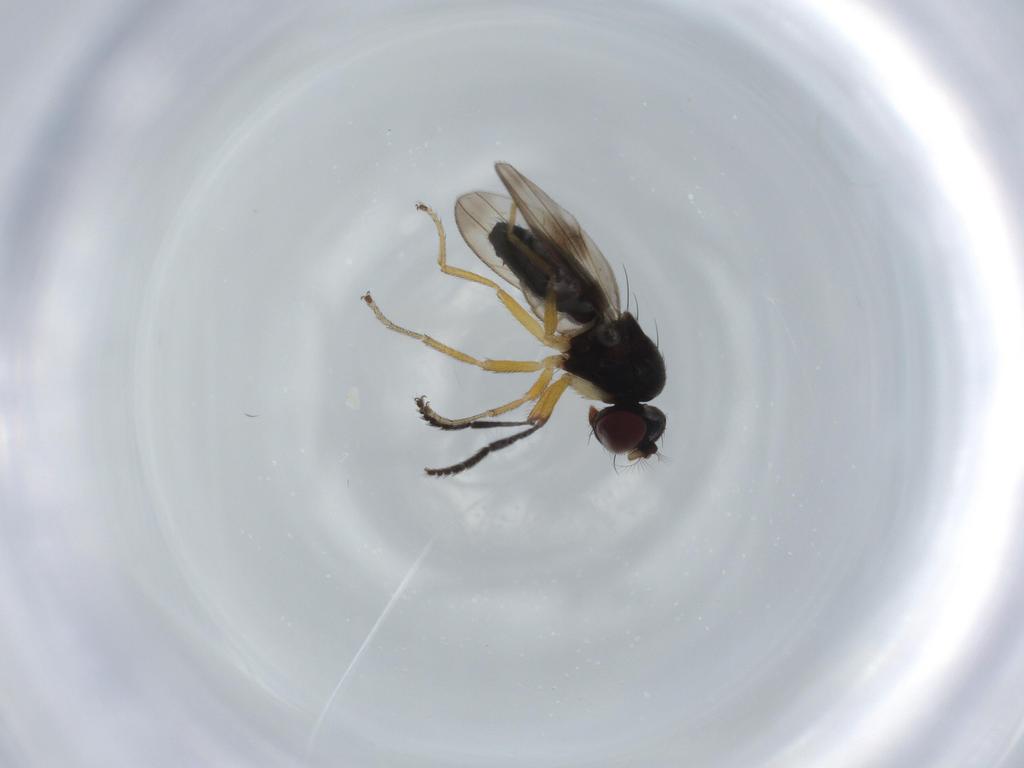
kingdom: Animalia
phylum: Arthropoda
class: Insecta
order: Diptera
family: Ephydridae
